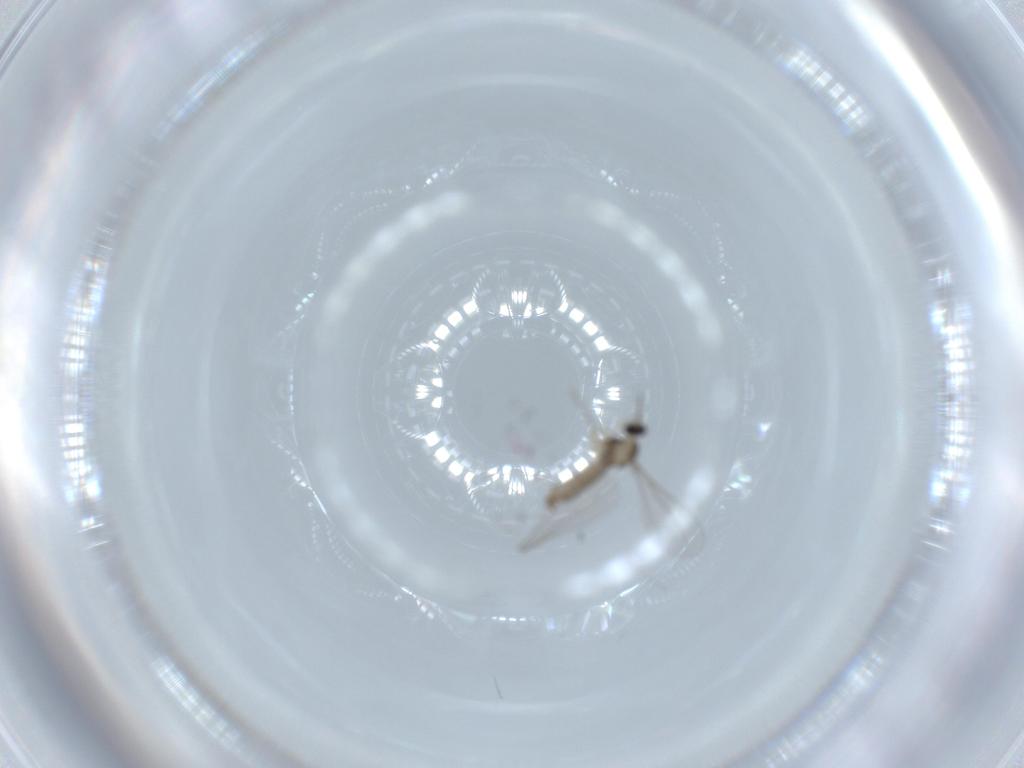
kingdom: Animalia
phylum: Arthropoda
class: Insecta
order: Diptera
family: Cecidomyiidae
